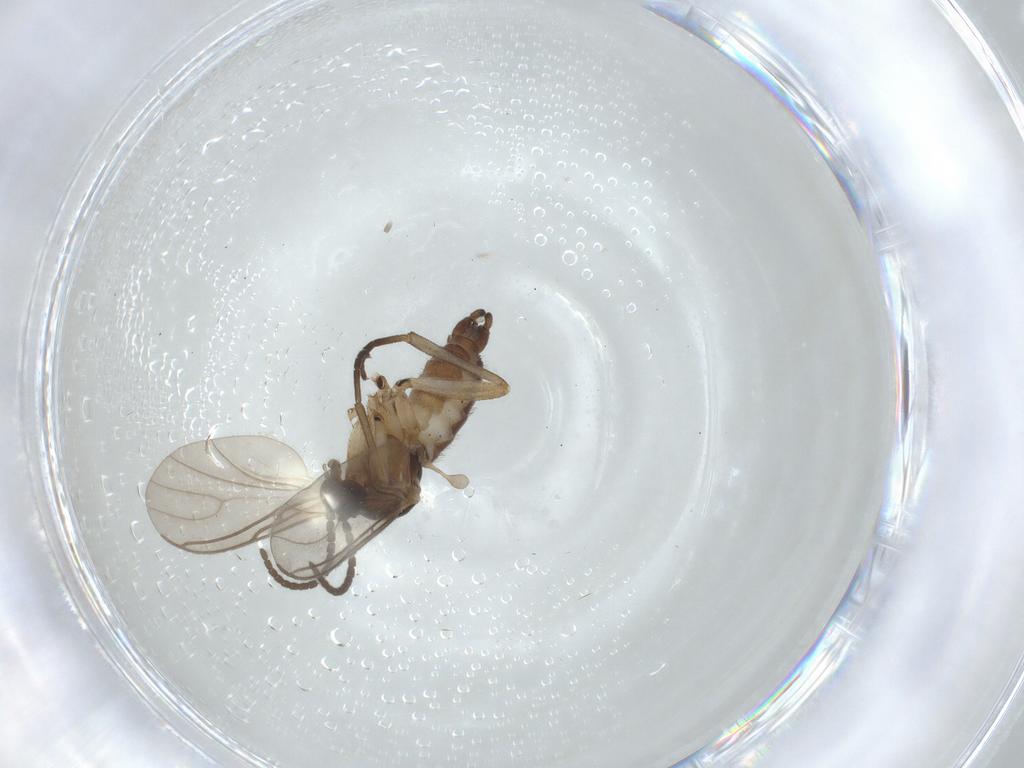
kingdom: Animalia
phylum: Arthropoda
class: Insecta
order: Diptera
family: Sciaridae
